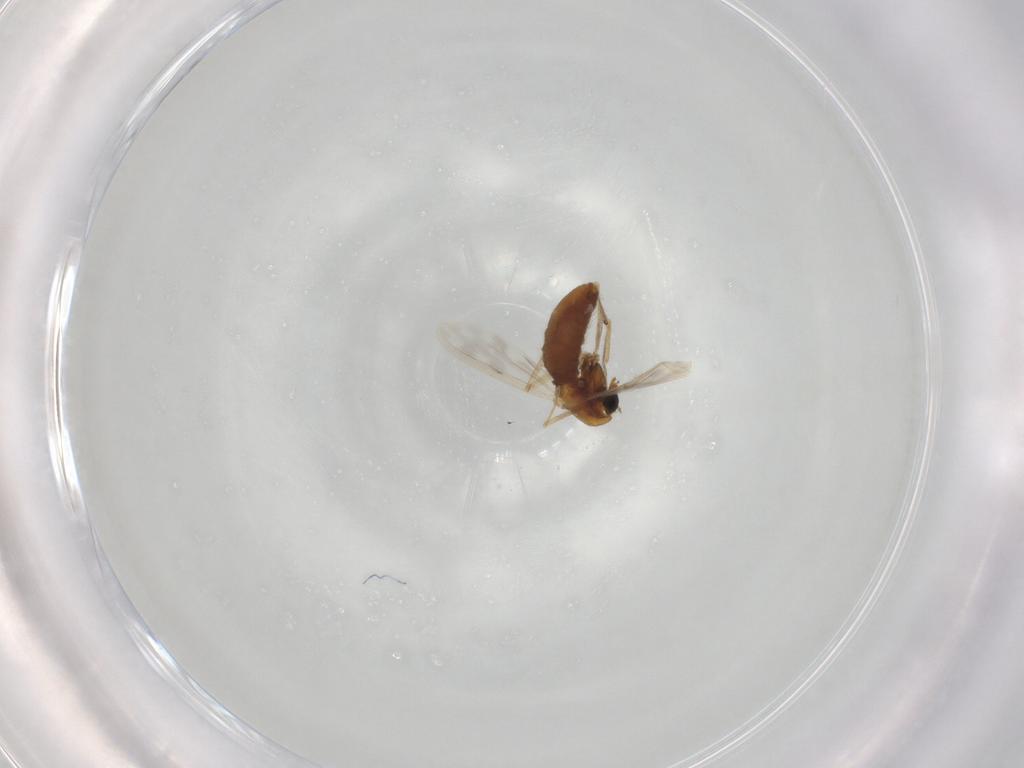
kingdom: Animalia
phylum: Arthropoda
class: Insecta
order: Diptera
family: Chironomidae
